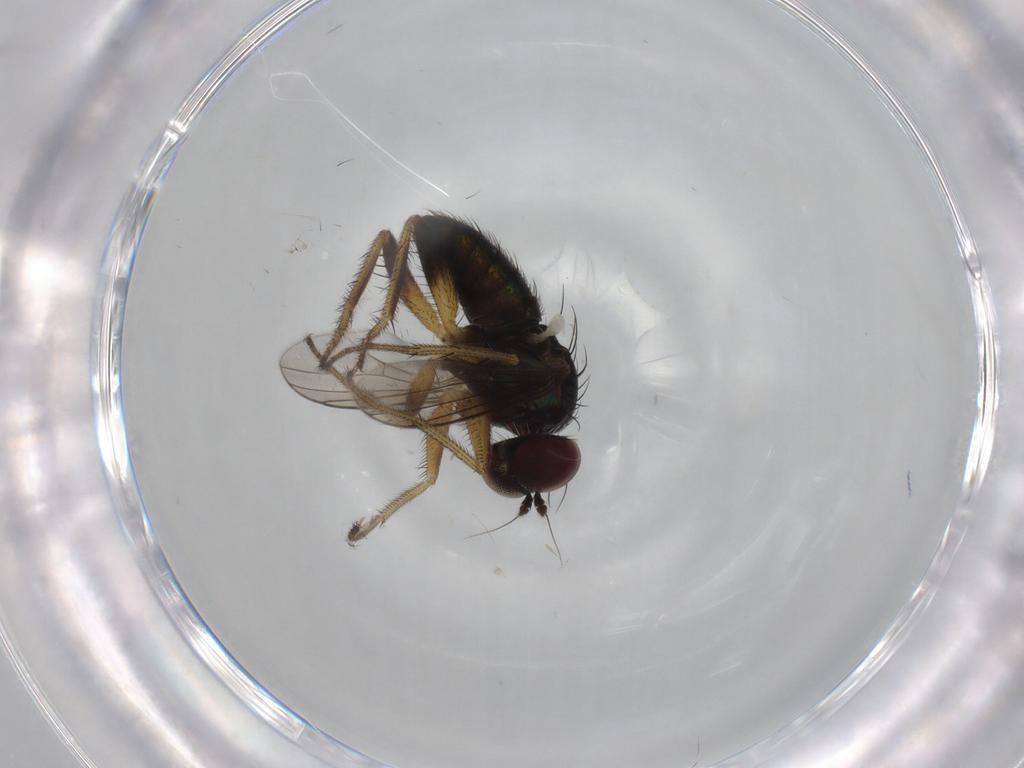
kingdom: Animalia
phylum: Arthropoda
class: Insecta
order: Diptera
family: Dolichopodidae
